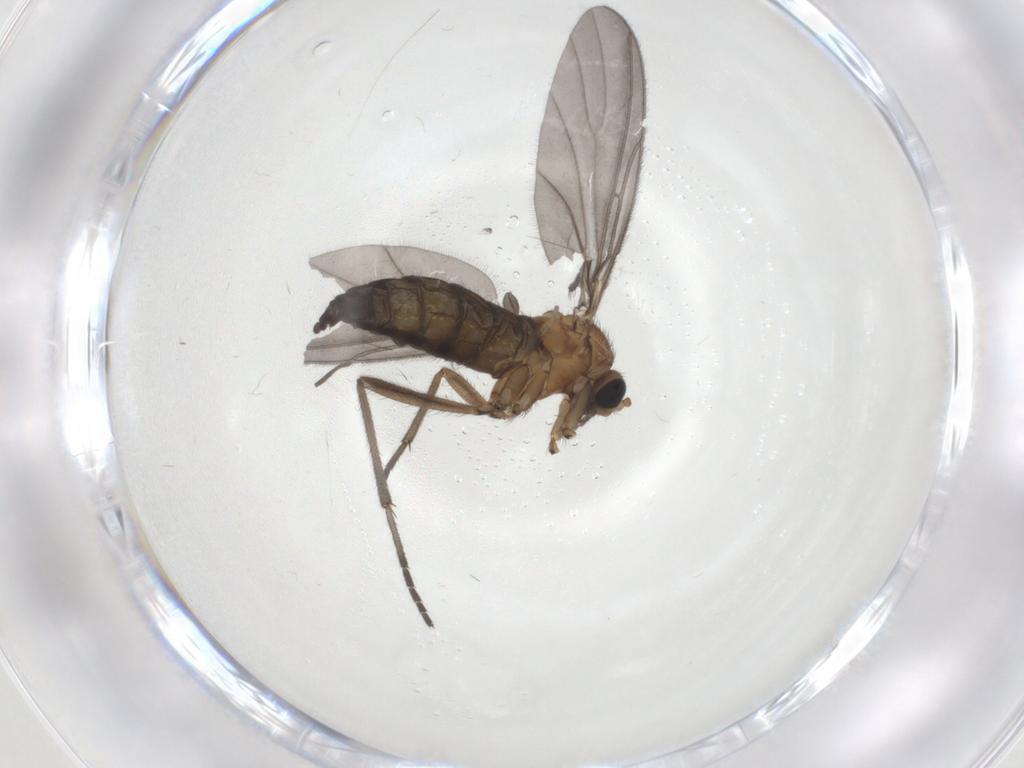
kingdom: Animalia
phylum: Arthropoda
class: Insecta
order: Diptera
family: Limoniidae
